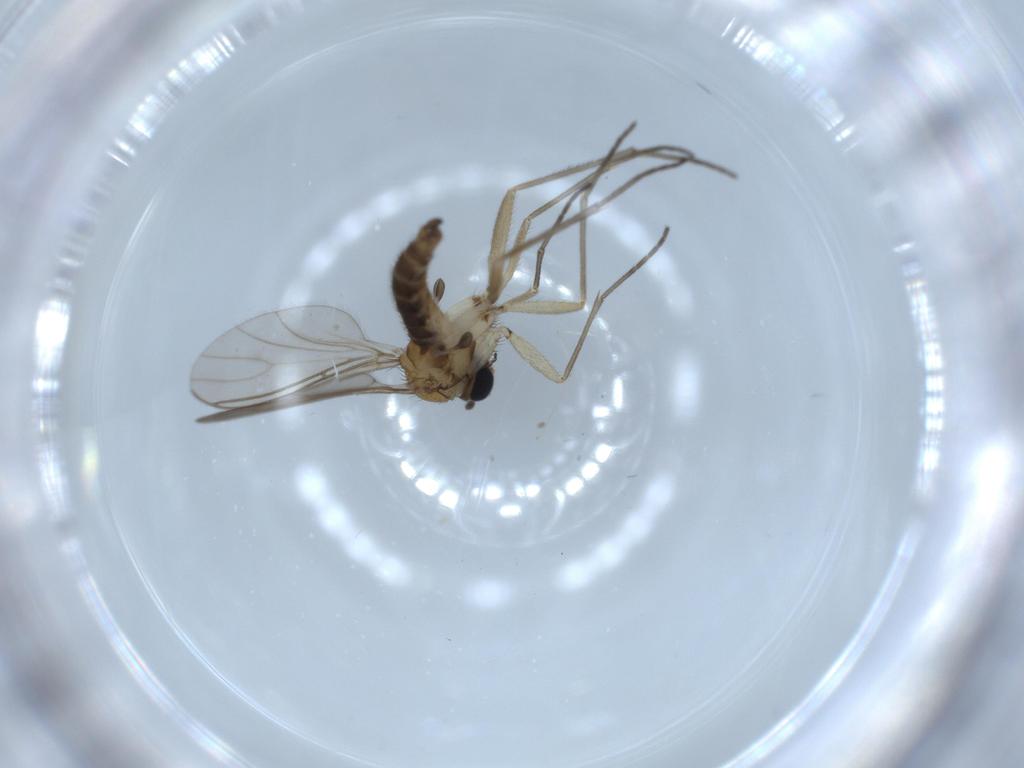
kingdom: Animalia
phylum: Arthropoda
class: Insecta
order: Diptera
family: Sciaridae
